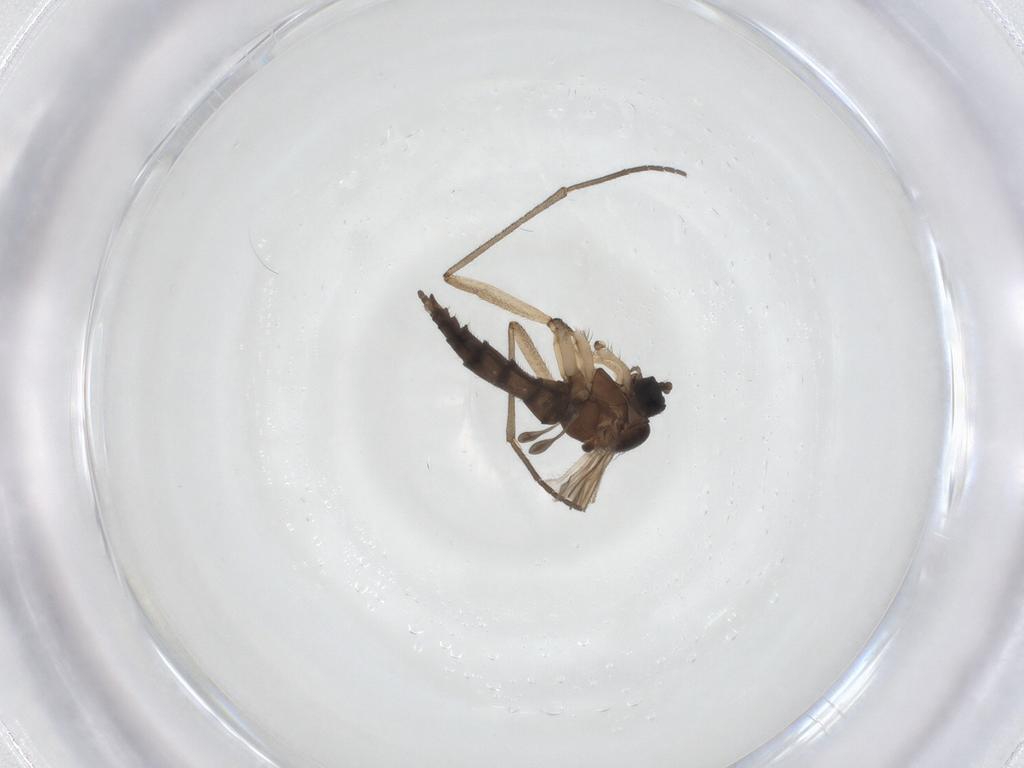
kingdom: Animalia
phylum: Arthropoda
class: Insecta
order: Diptera
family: Sciaridae
